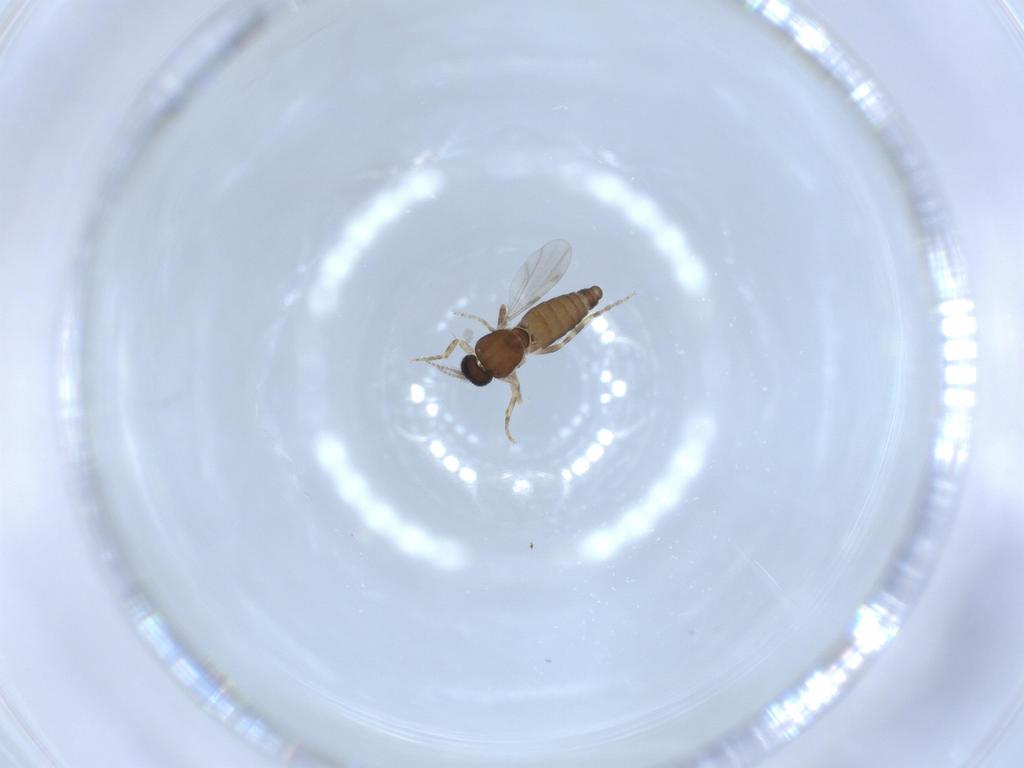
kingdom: Animalia
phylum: Arthropoda
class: Insecta
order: Diptera
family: Ceratopogonidae
